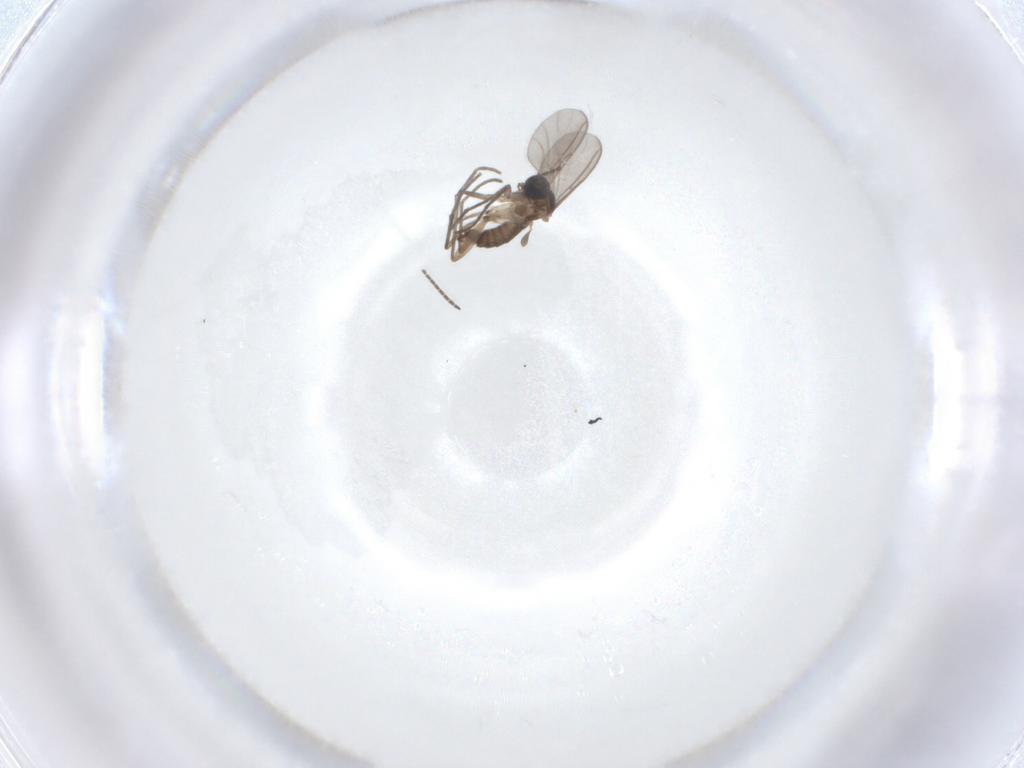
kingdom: Animalia
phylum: Arthropoda
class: Insecta
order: Diptera
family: Sciaridae
